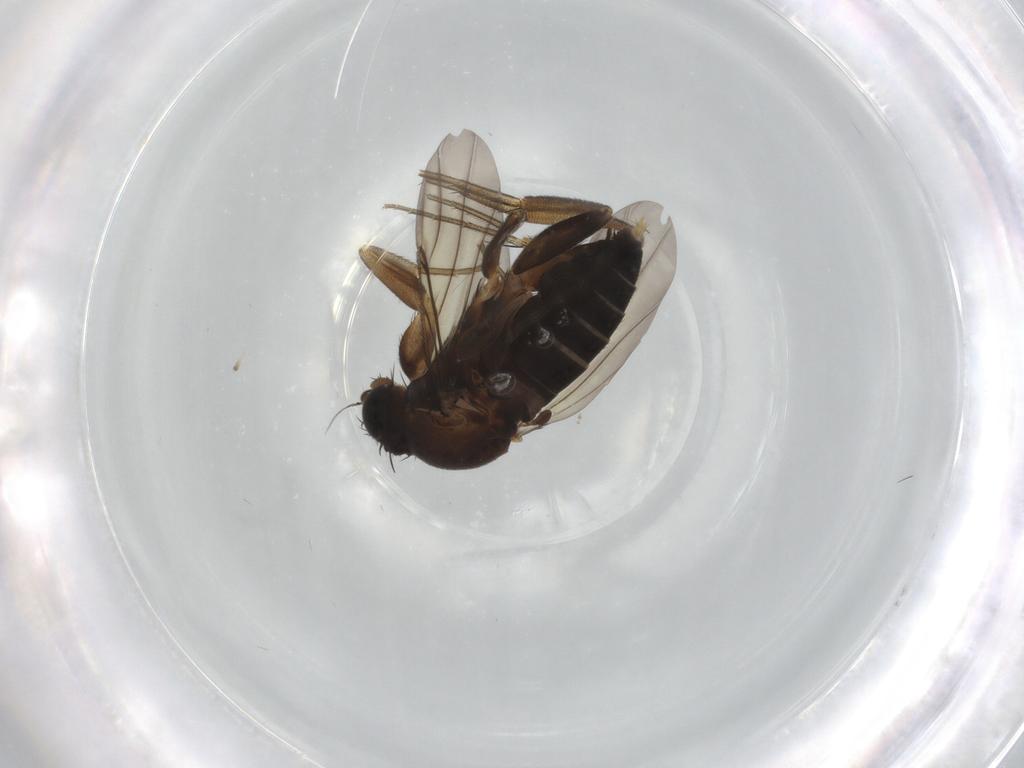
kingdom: Animalia
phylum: Arthropoda
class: Insecta
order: Diptera
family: Phoridae
